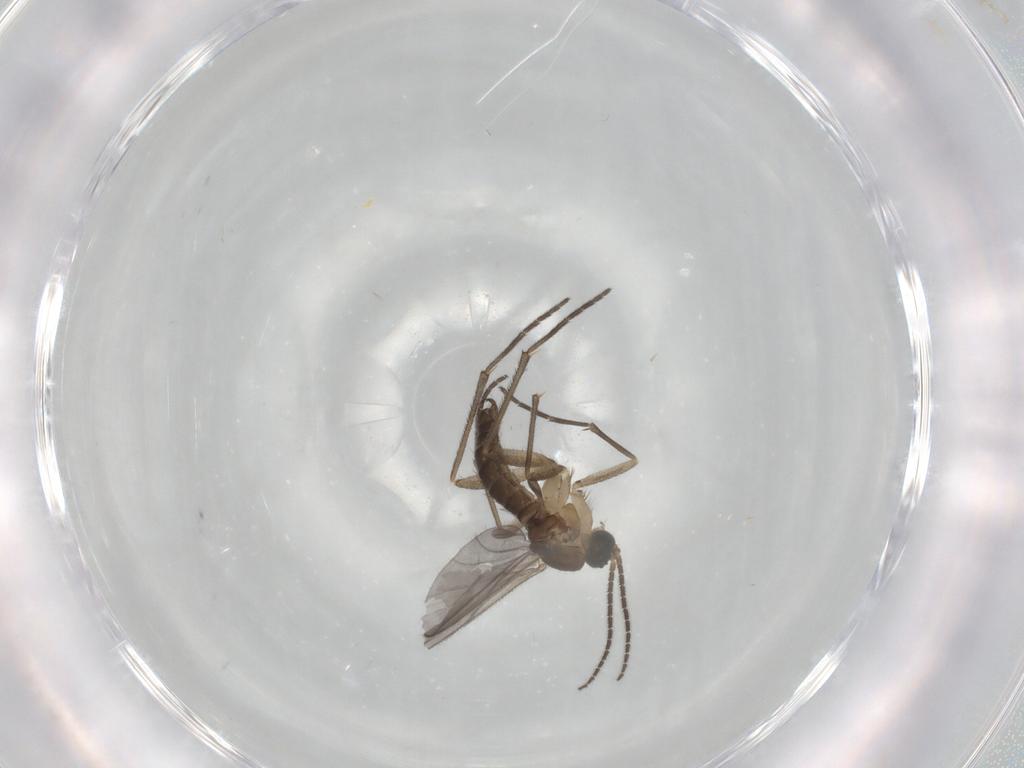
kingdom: Animalia
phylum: Arthropoda
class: Insecta
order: Diptera
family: Sciaridae
